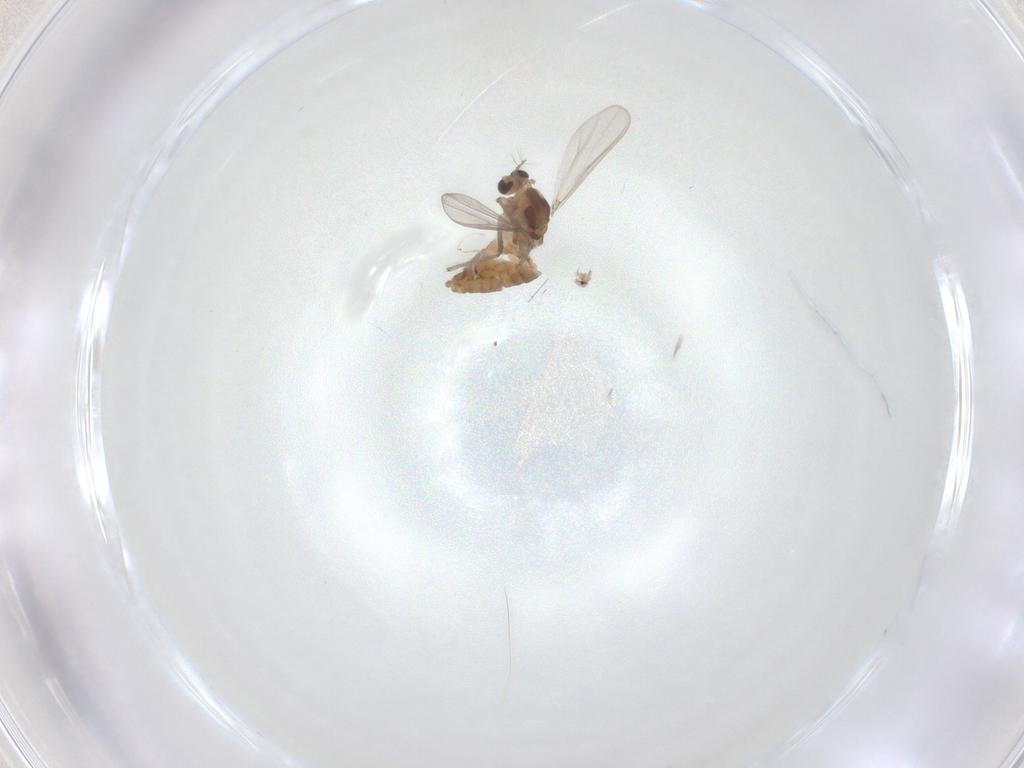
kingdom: Animalia
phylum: Arthropoda
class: Insecta
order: Diptera
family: Chironomidae
